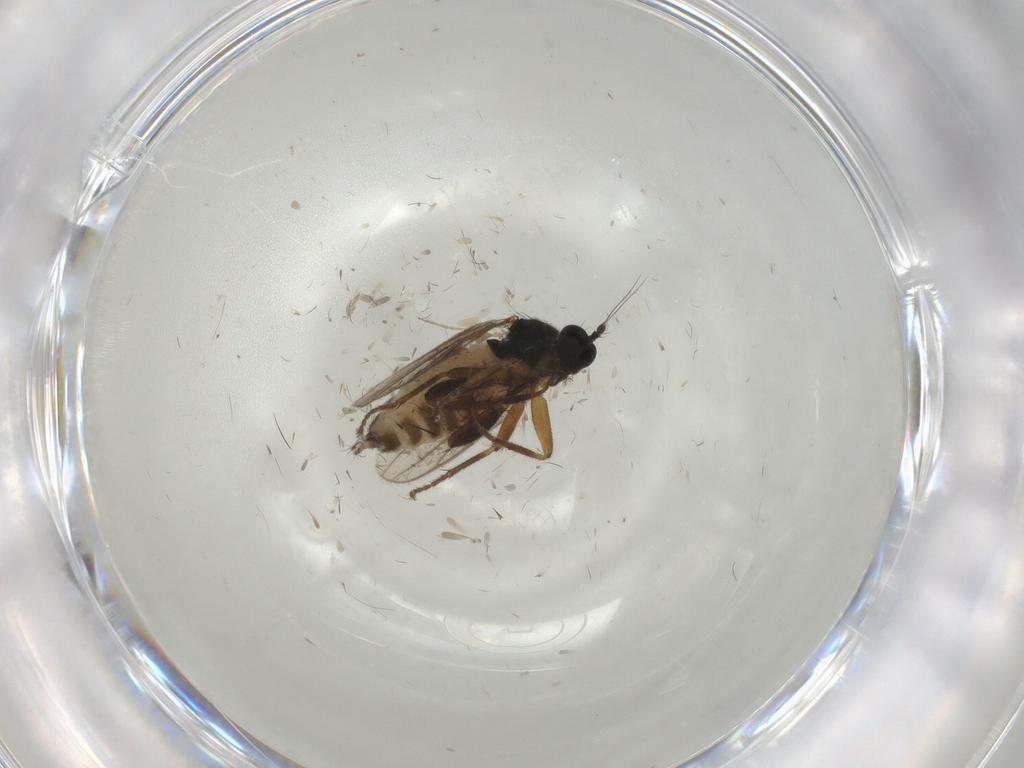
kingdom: Animalia
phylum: Arthropoda
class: Insecta
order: Diptera
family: Hybotidae
